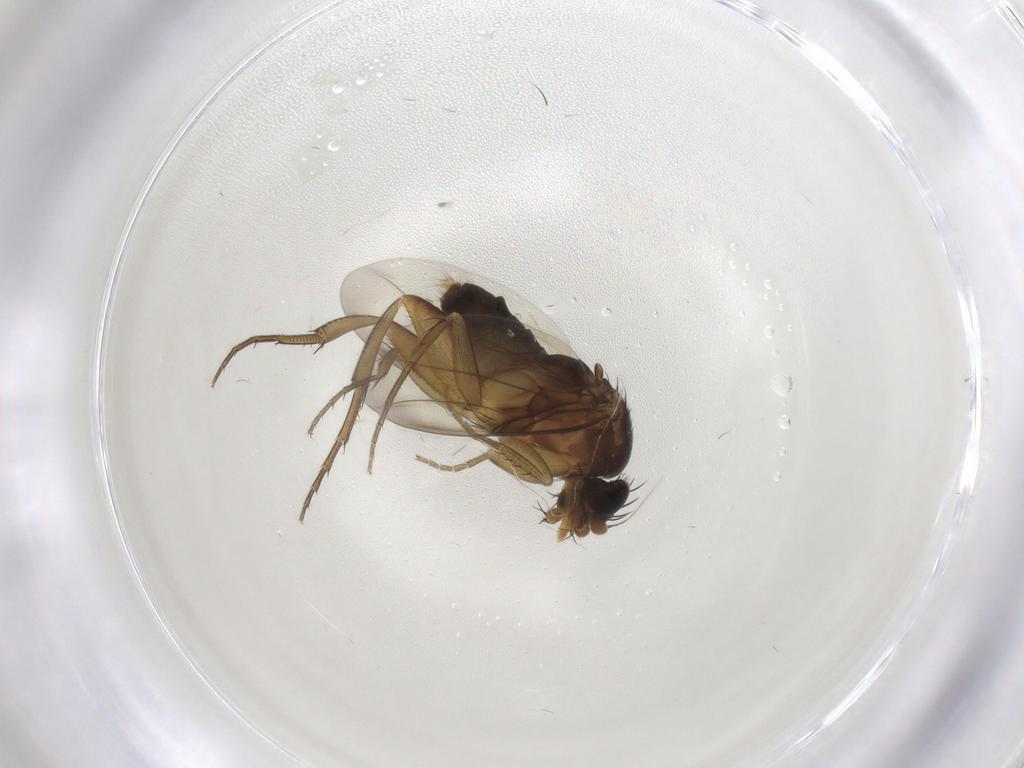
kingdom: Animalia
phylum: Arthropoda
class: Insecta
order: Diptera
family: Phoridae
